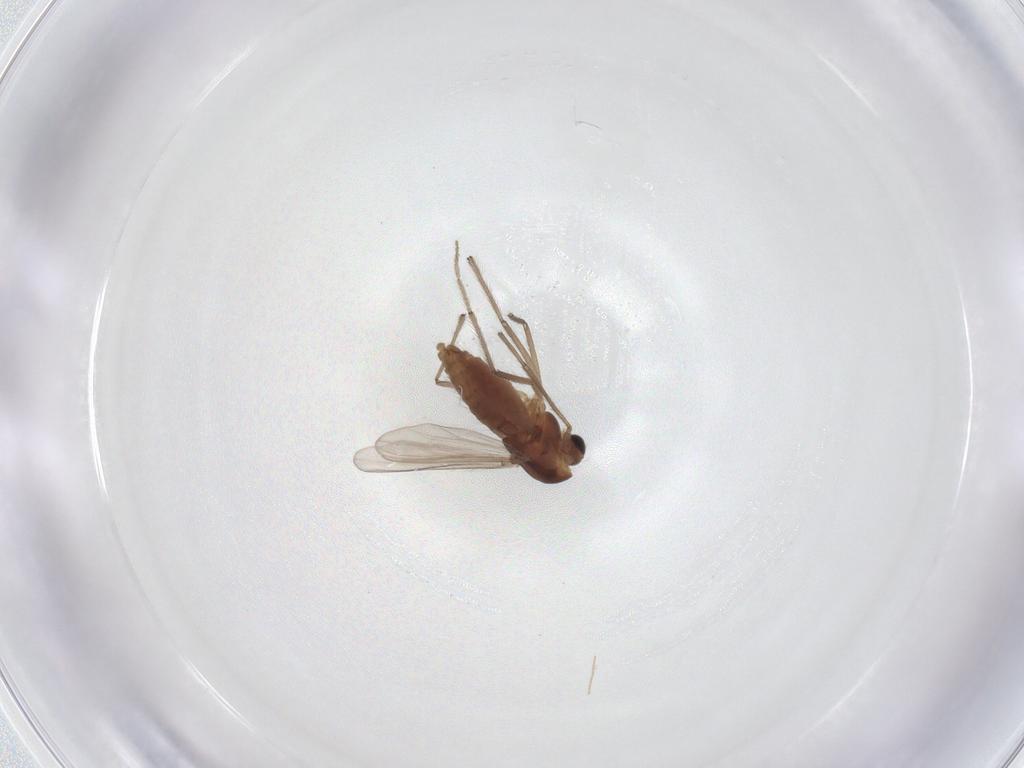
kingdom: Animalia
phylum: Arthropoda
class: Insecta
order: Diptera
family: Chironomidae
